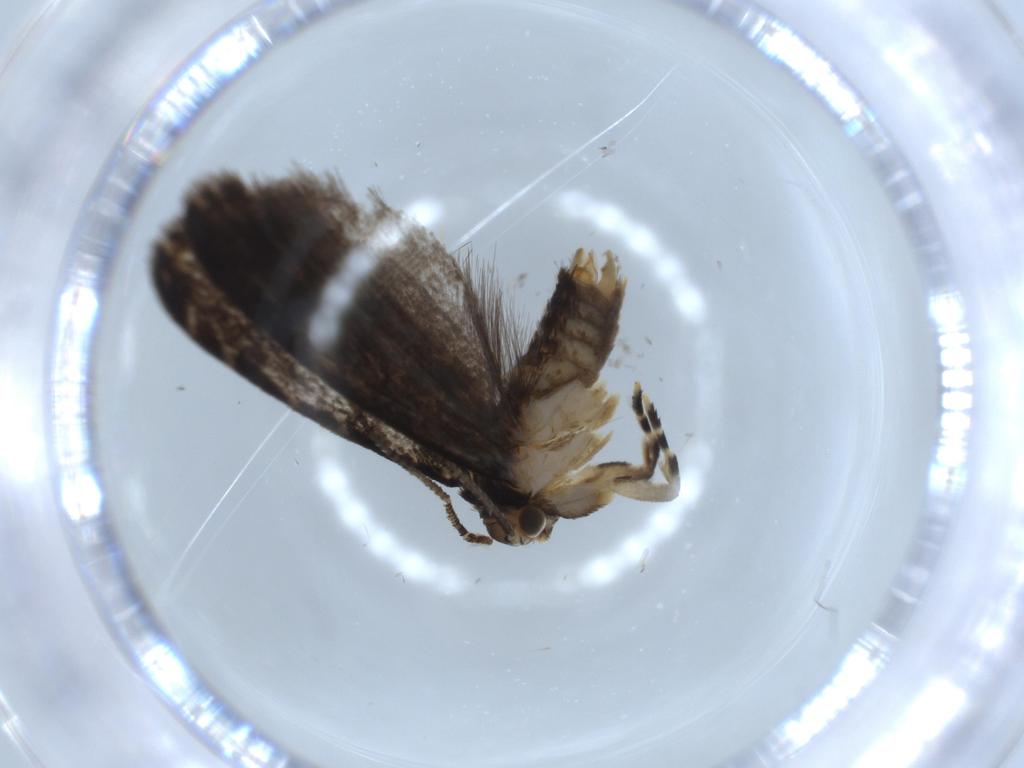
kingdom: Animalia
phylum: Arthropoda
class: Insecta
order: Lepidoptera
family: Tineidae
